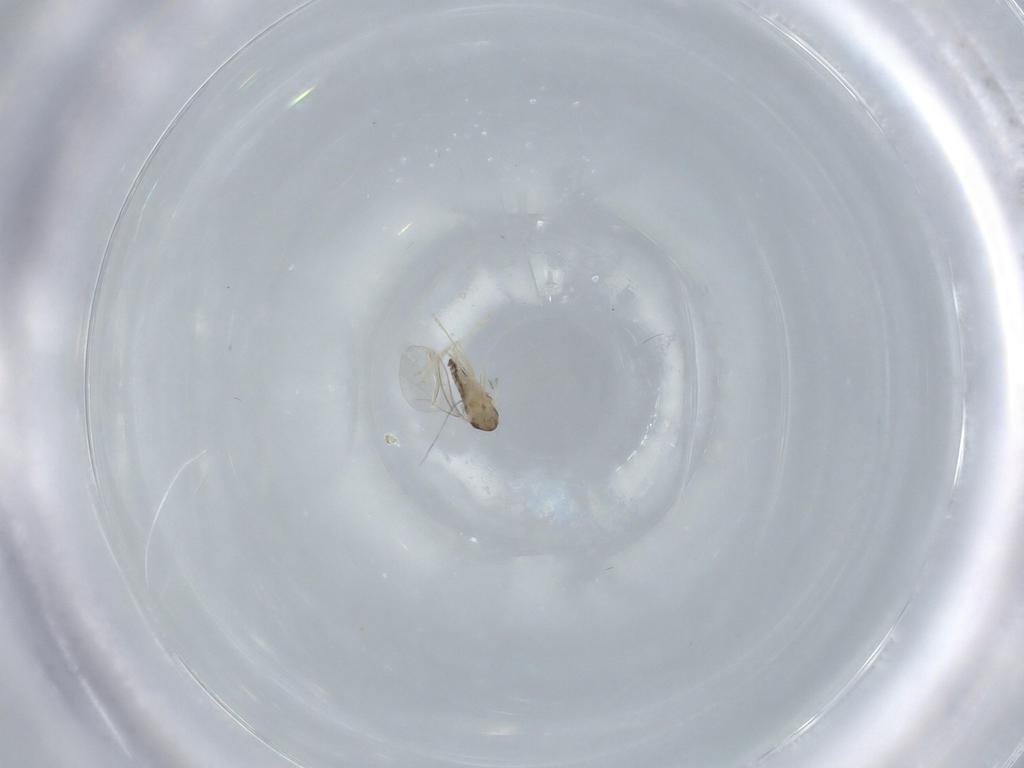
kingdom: Animalia
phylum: Arthropoda
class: Insecta
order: Diptera
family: Cecidomyiidae
